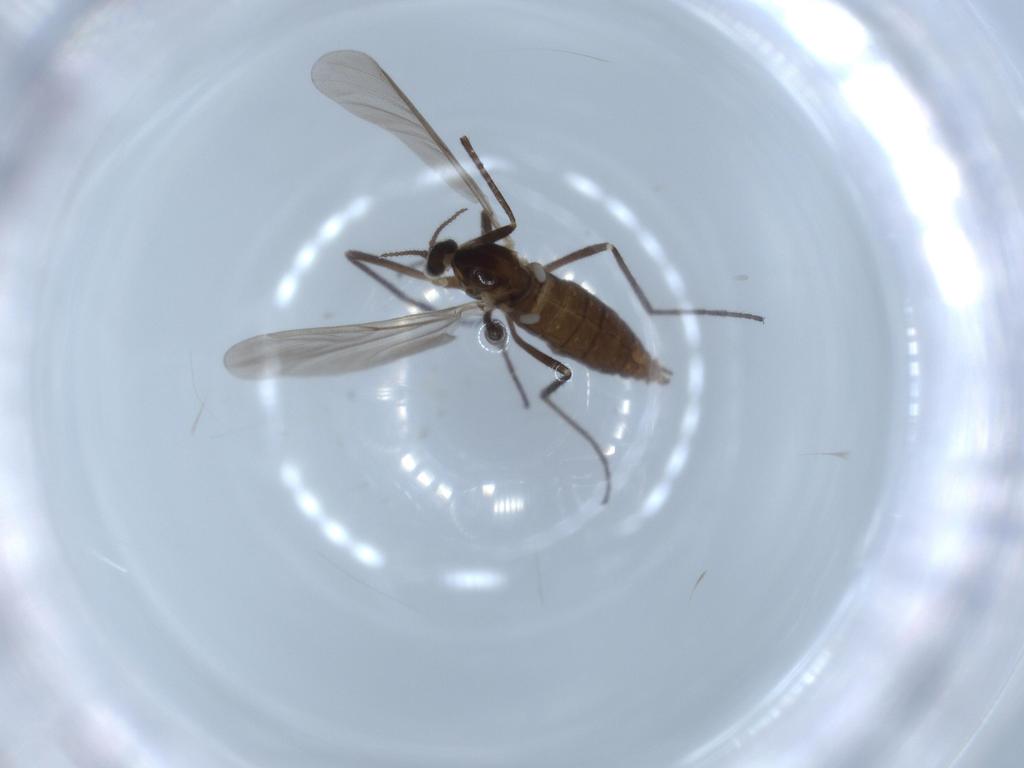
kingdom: Animalia
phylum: Arthropoda
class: Insecta
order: Diptera
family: Cecidomyiidae
